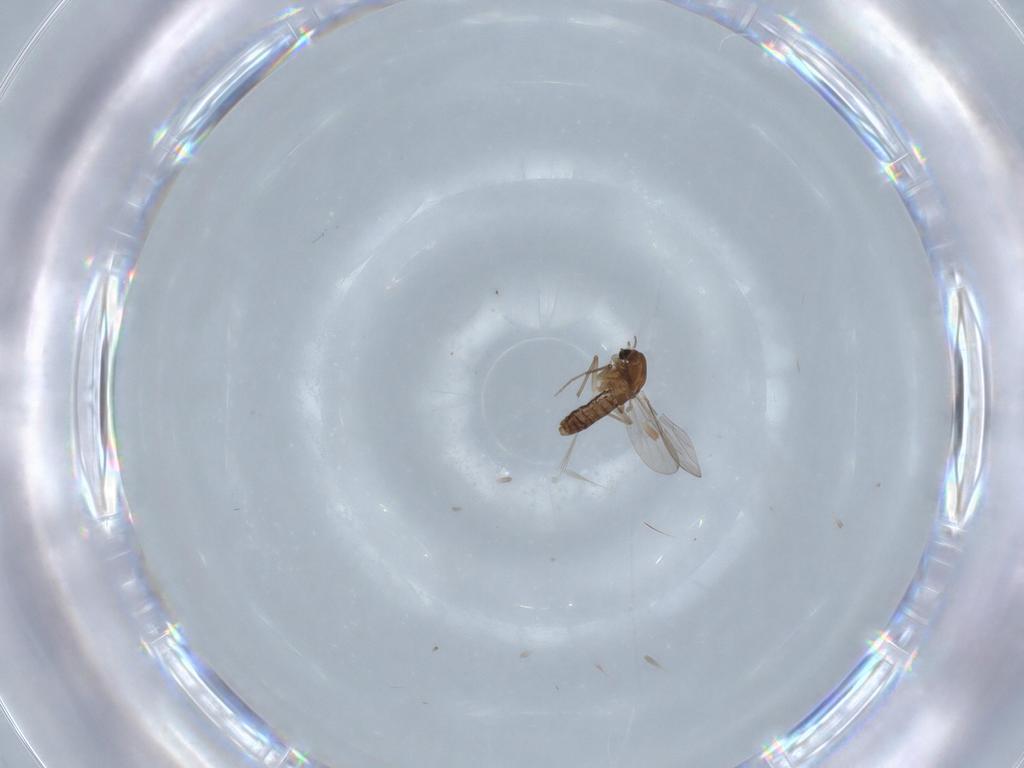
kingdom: Animalia
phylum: Arthropoda
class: Insecta
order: Diptera
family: Chironomidae
